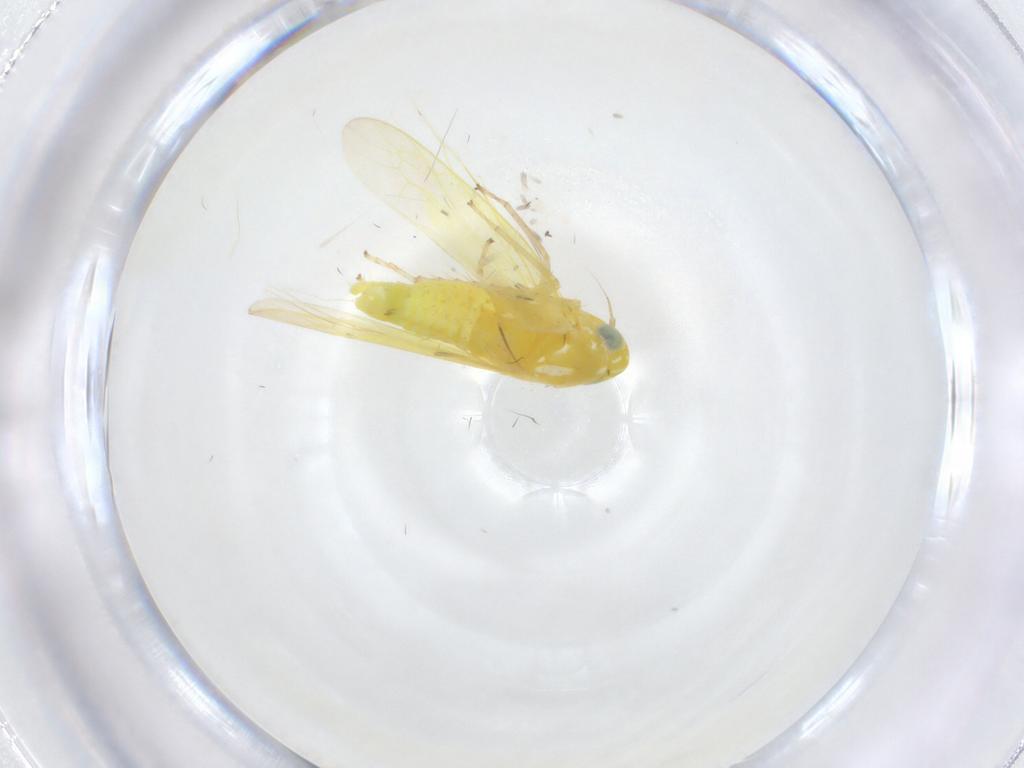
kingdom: Animalia
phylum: Arthropoda
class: Insecta
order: Hemiptera
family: Cicadellidae
